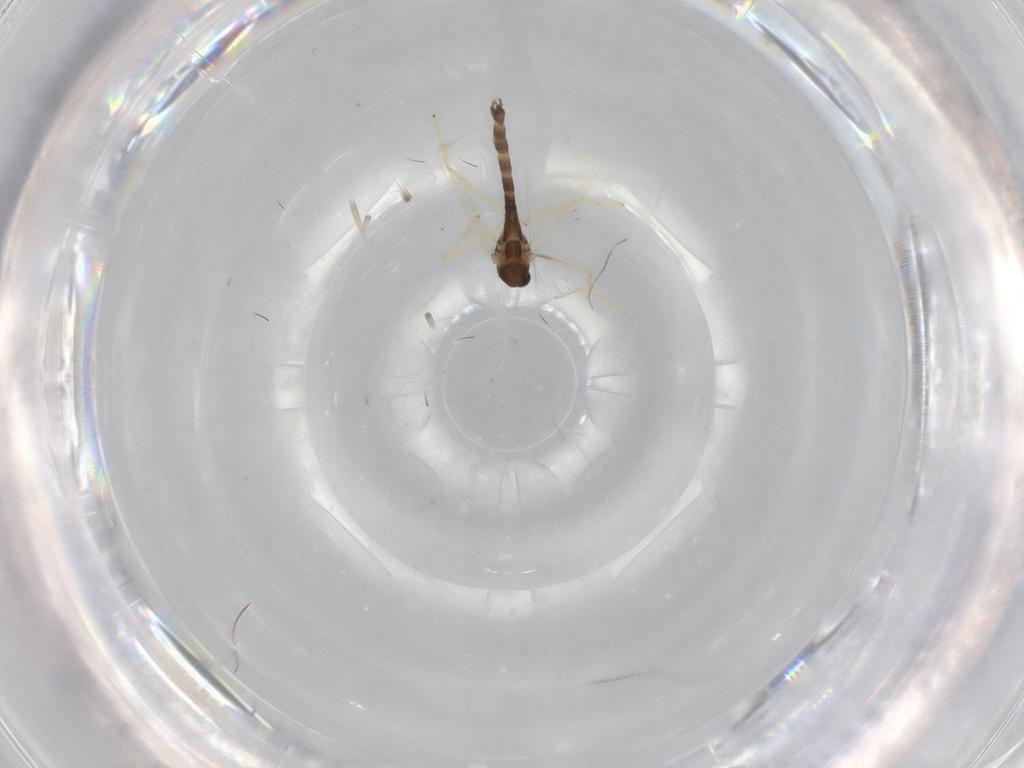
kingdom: Animalia
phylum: Arthropoda
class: Insecta
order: Diptera
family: Chironomidae
